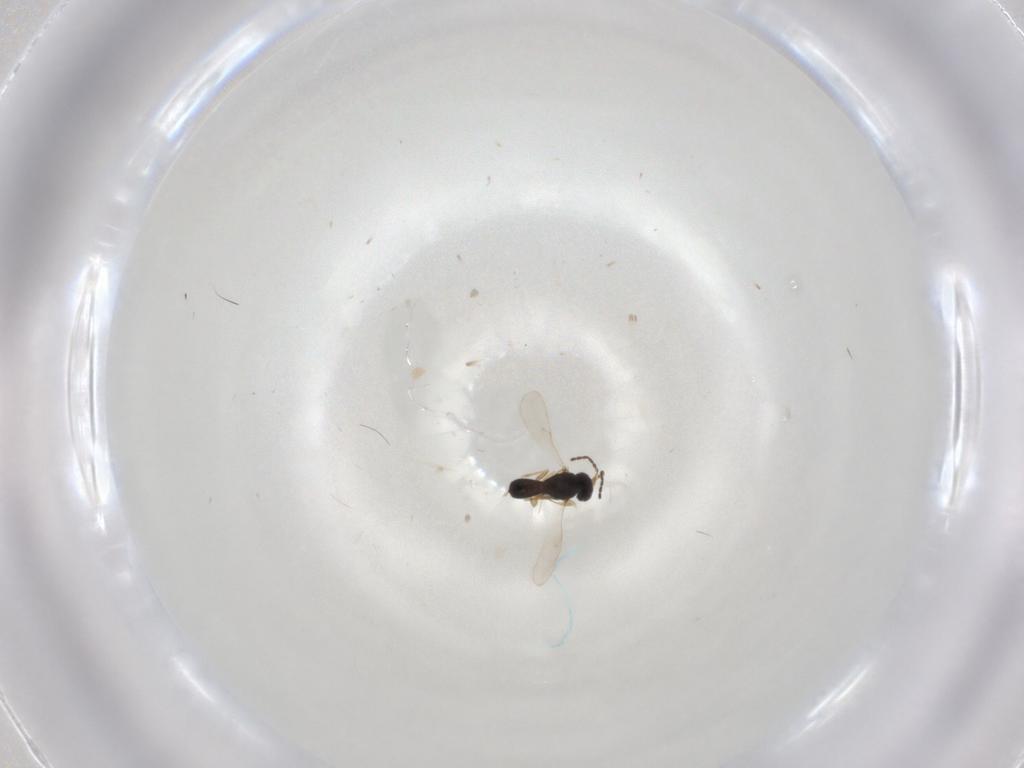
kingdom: Animalia
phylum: Arthropoda
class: Insecta
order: Hymenoptera
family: Scelionidae
